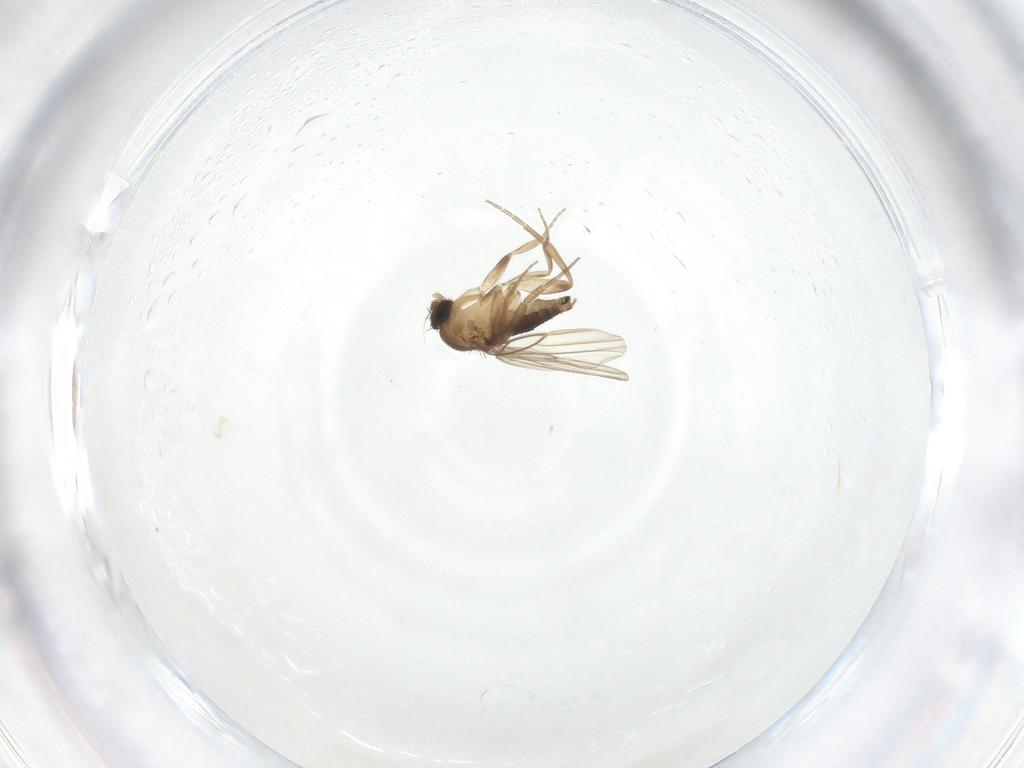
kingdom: Animalia
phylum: Arthropoda
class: Insecta
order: Diptera
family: Phoridae
